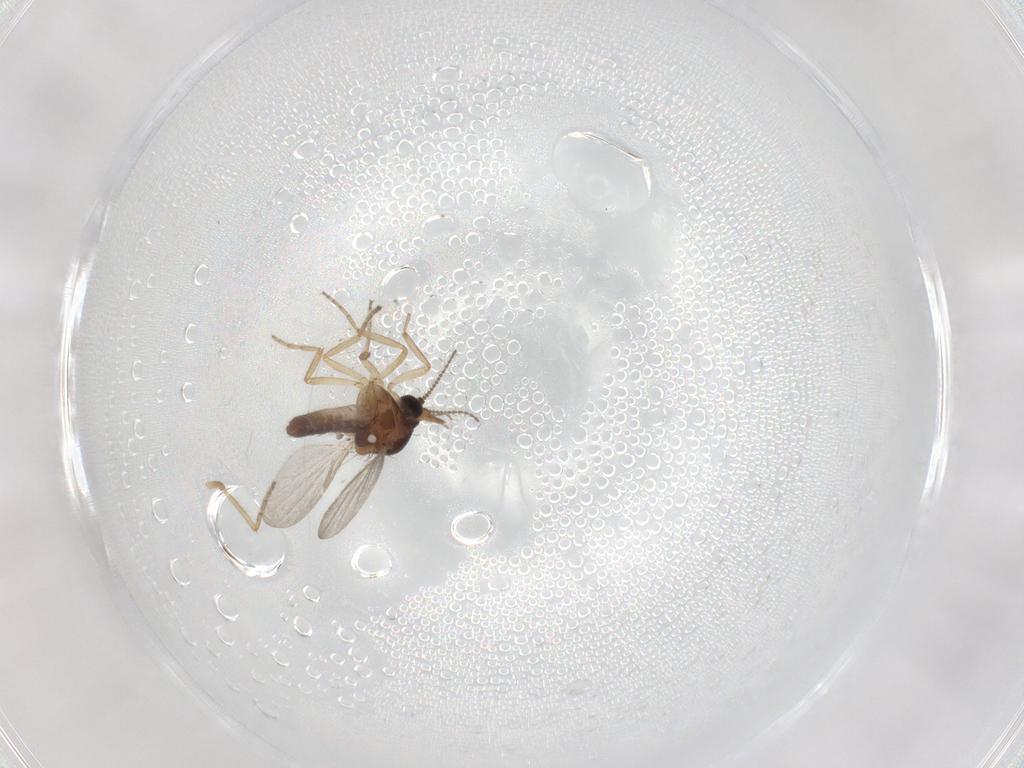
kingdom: Animalia
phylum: Arthropoda
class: Insecta
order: Diptera
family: Ceratopogonidae
